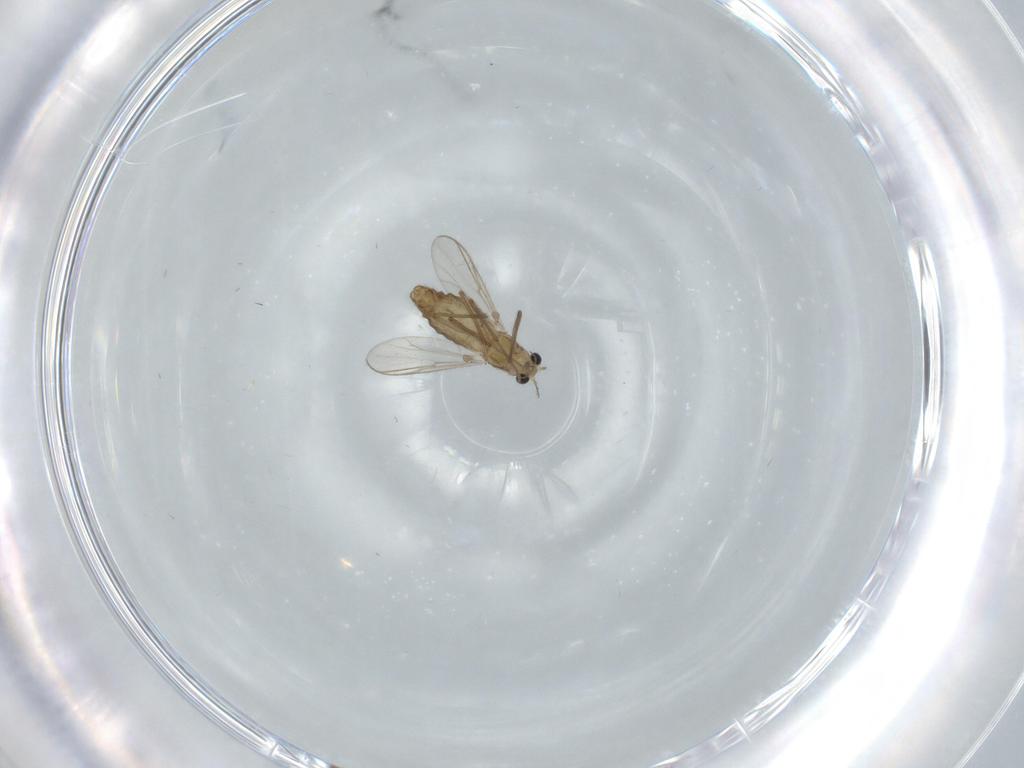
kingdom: Animalia
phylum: Arthropoda
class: Insecta
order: Diptera
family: Chironomidae
